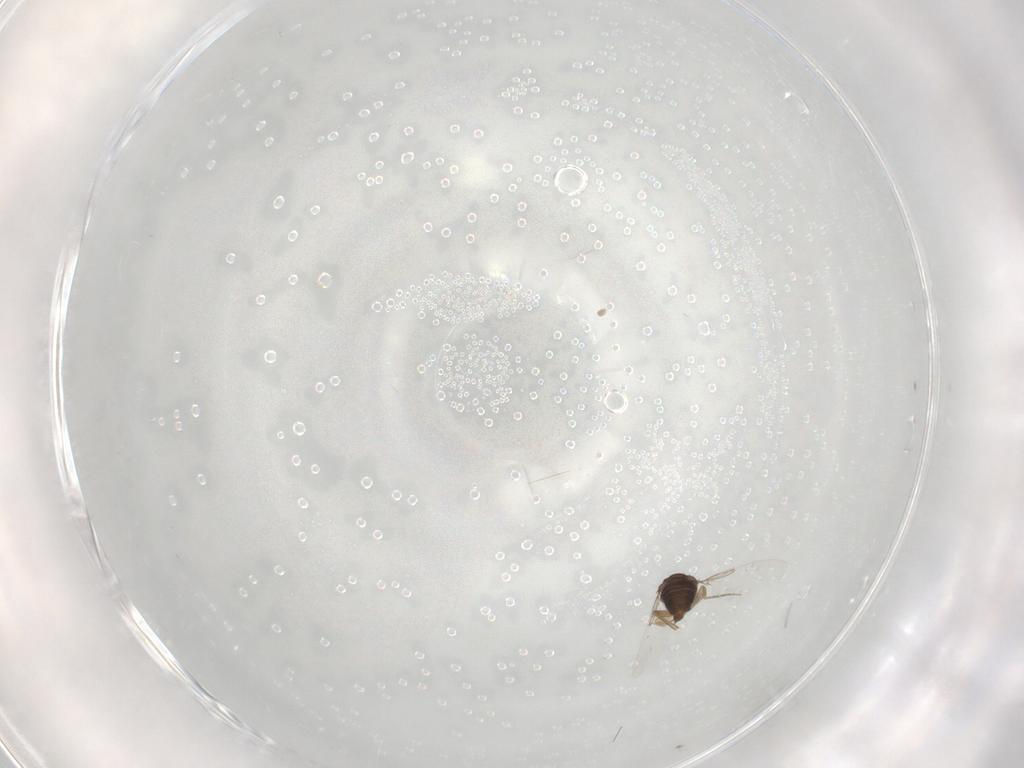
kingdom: Animalia
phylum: Arthropoda
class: Insecta
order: Diptera
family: Phoridae
